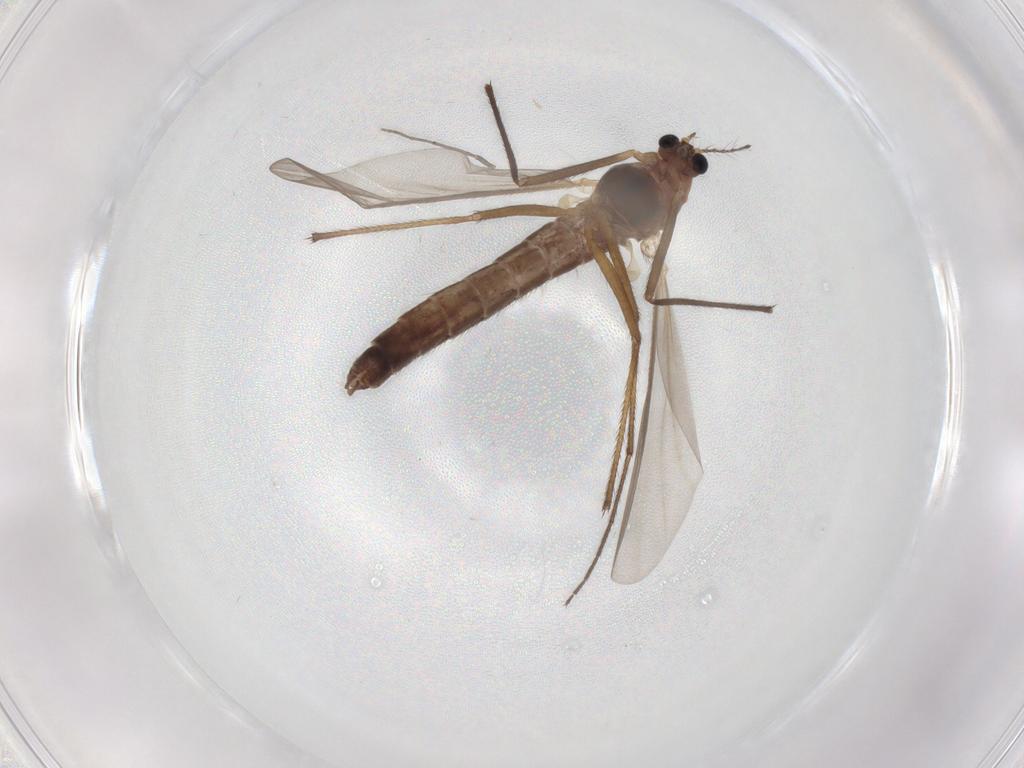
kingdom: Animalia
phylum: Arthropoda
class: Insecta
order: Diptera
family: Chironomidae
